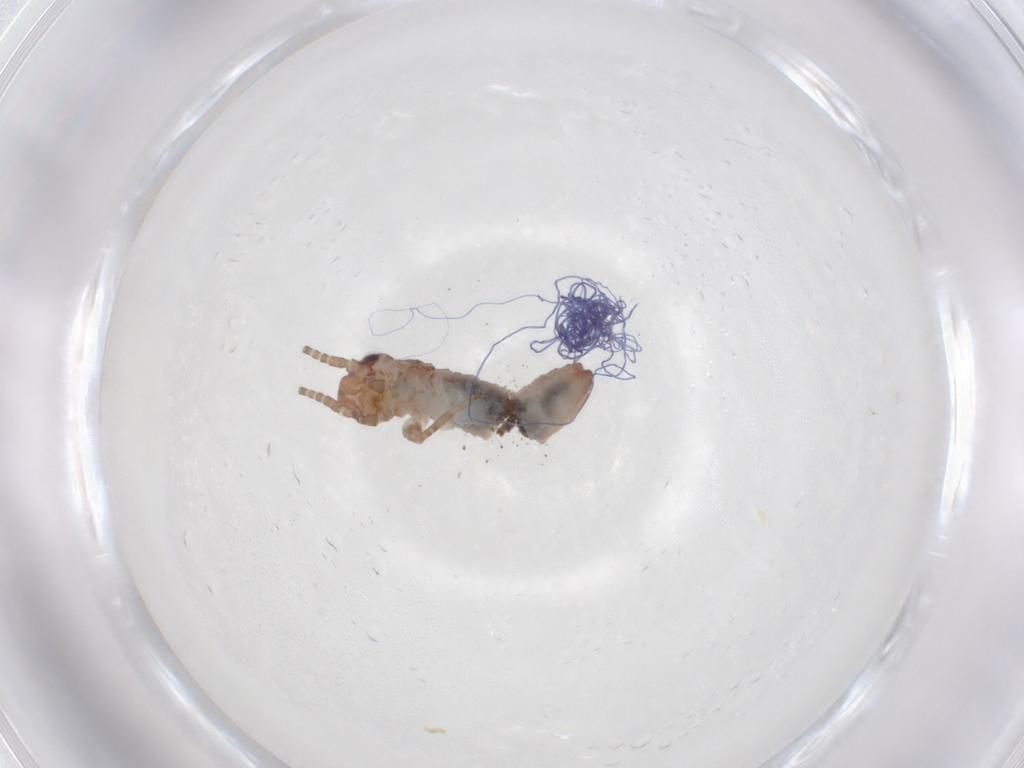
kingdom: Animalia
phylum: Arthropoda
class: Insecta
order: Orthoptera
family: Mogoplistidae
